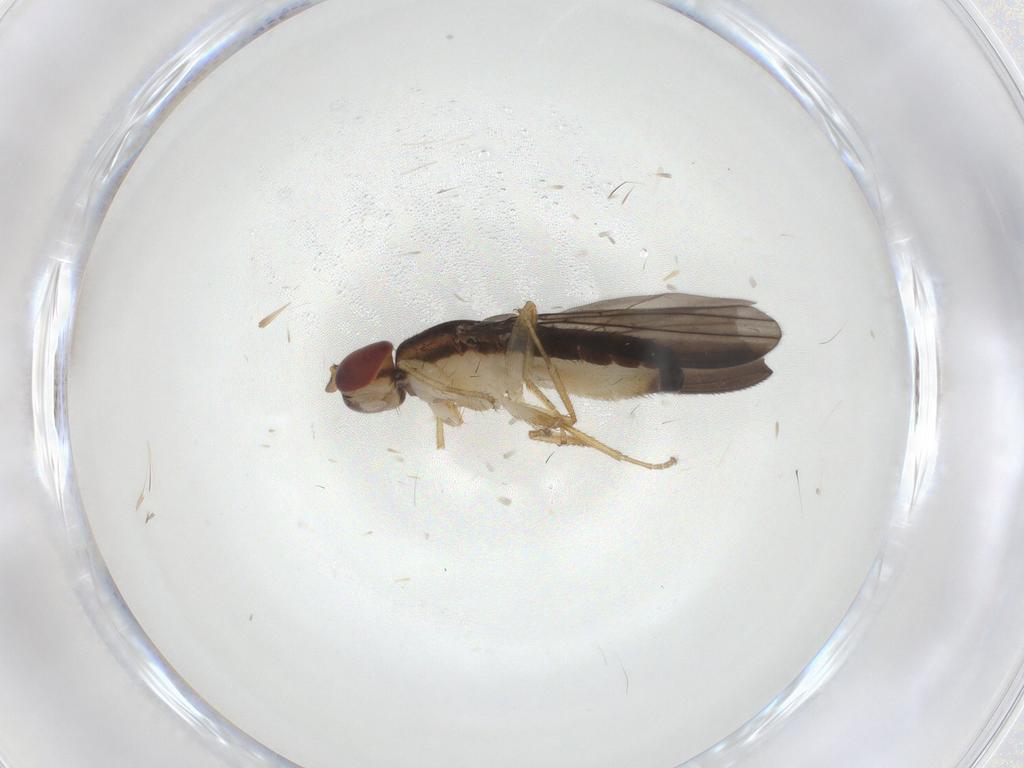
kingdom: Animalia
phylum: Arthropoda
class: Insecta
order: Diptera
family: Anthomyzidae
